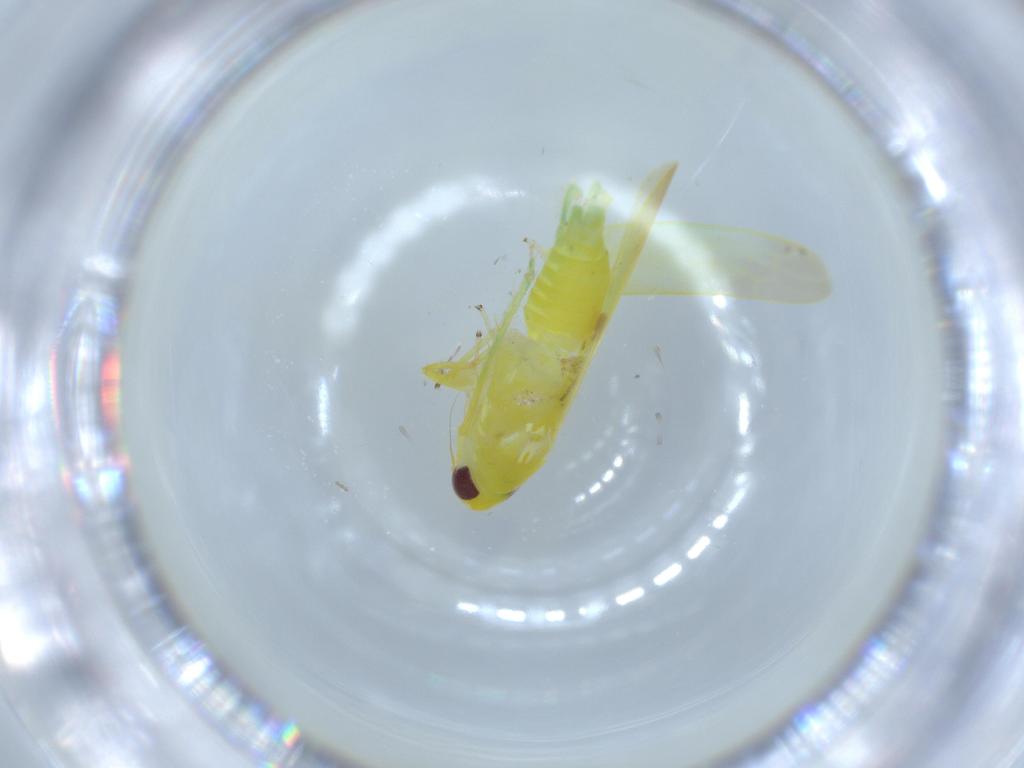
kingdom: Animalia
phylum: Arthropoda
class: Insecta
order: Hemiptera
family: Cicadellidae
